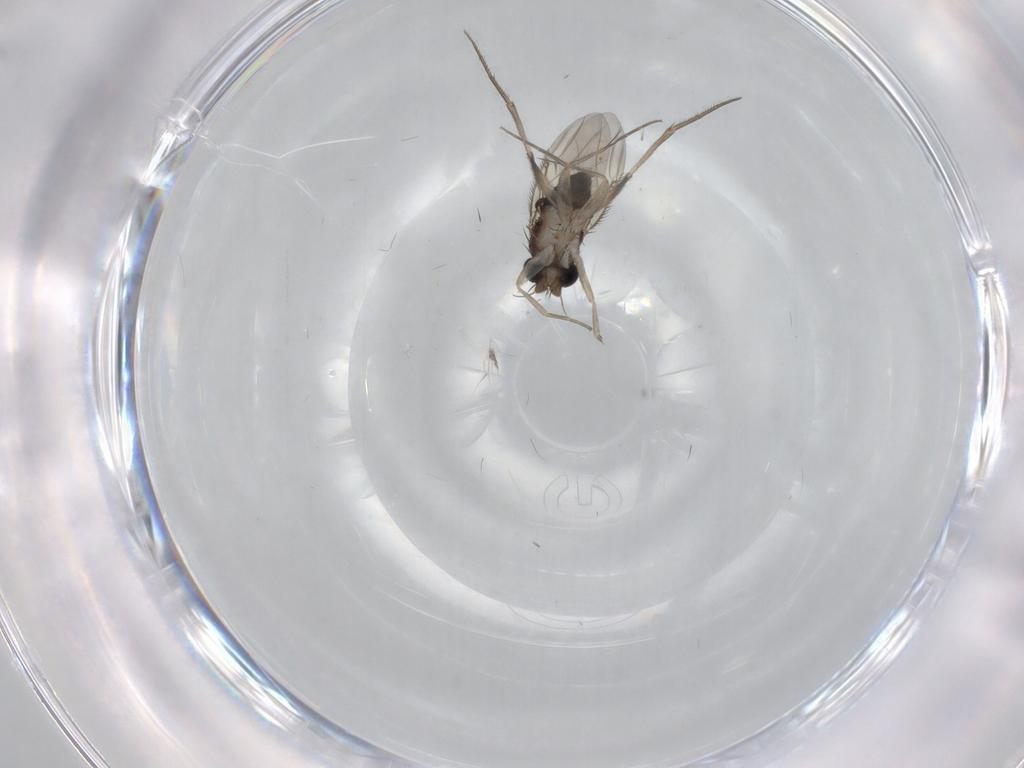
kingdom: Animalia
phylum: Arthropoda
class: Insecta
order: Diptera
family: Phoridae
